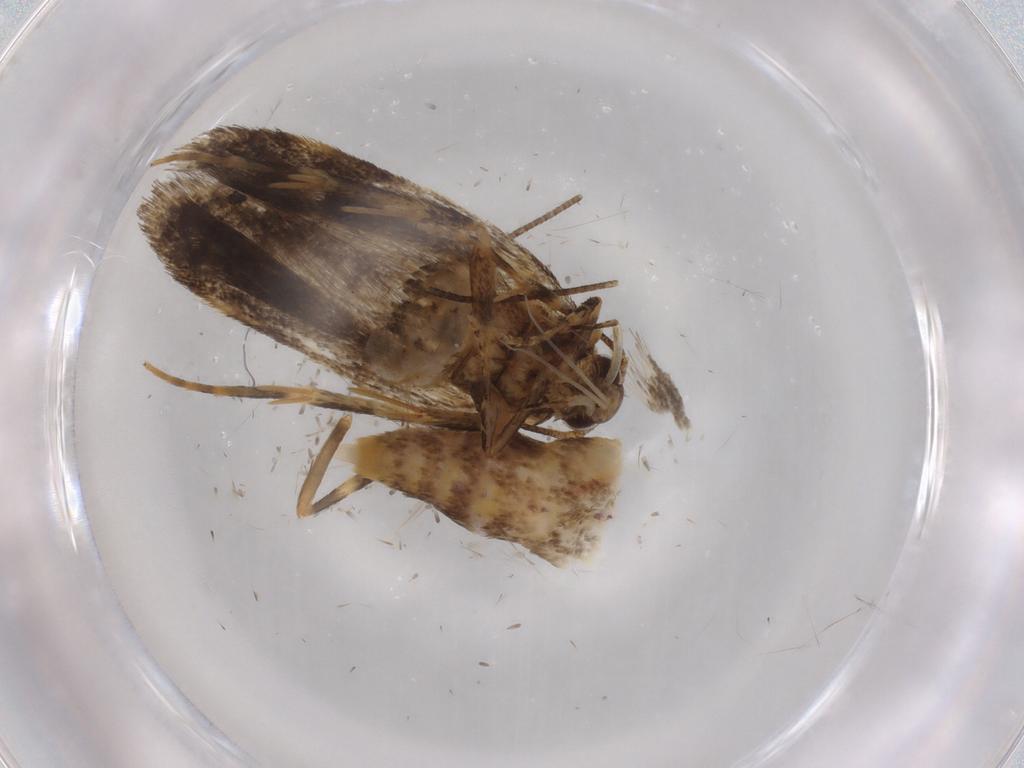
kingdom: Animalia
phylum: Arthropoda
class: Insecta
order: Lepidoptera
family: Autostichidae
